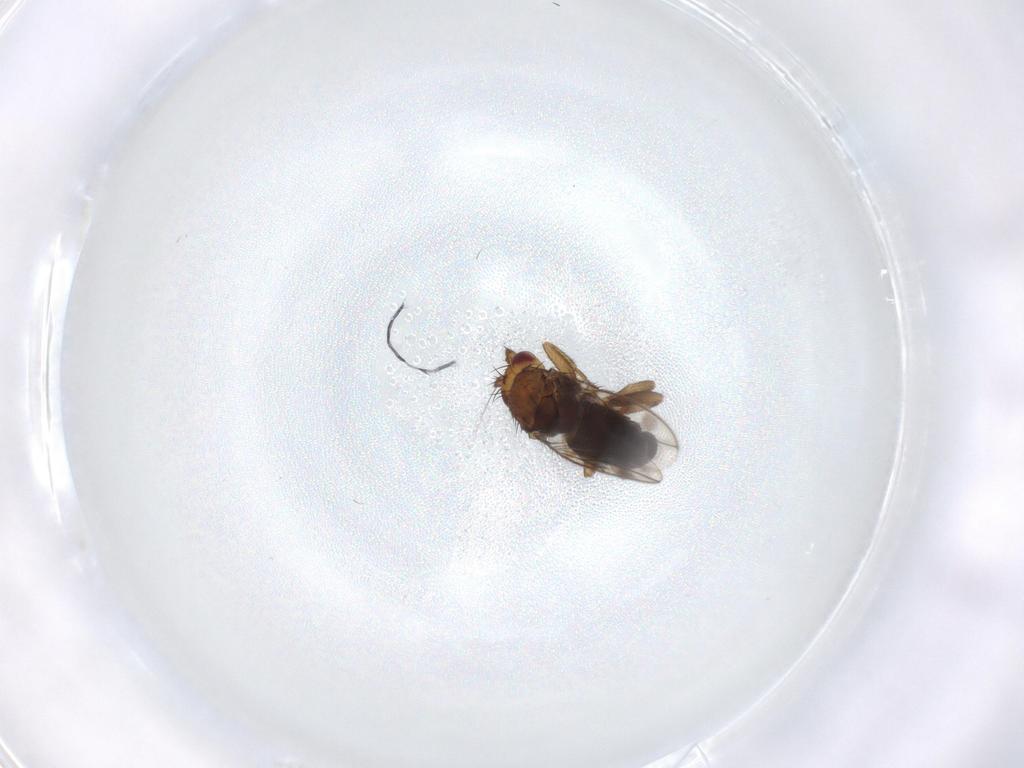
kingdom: Animalia
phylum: Arthropoda
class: Insecta
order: Diptera
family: Sphaeroceridae
